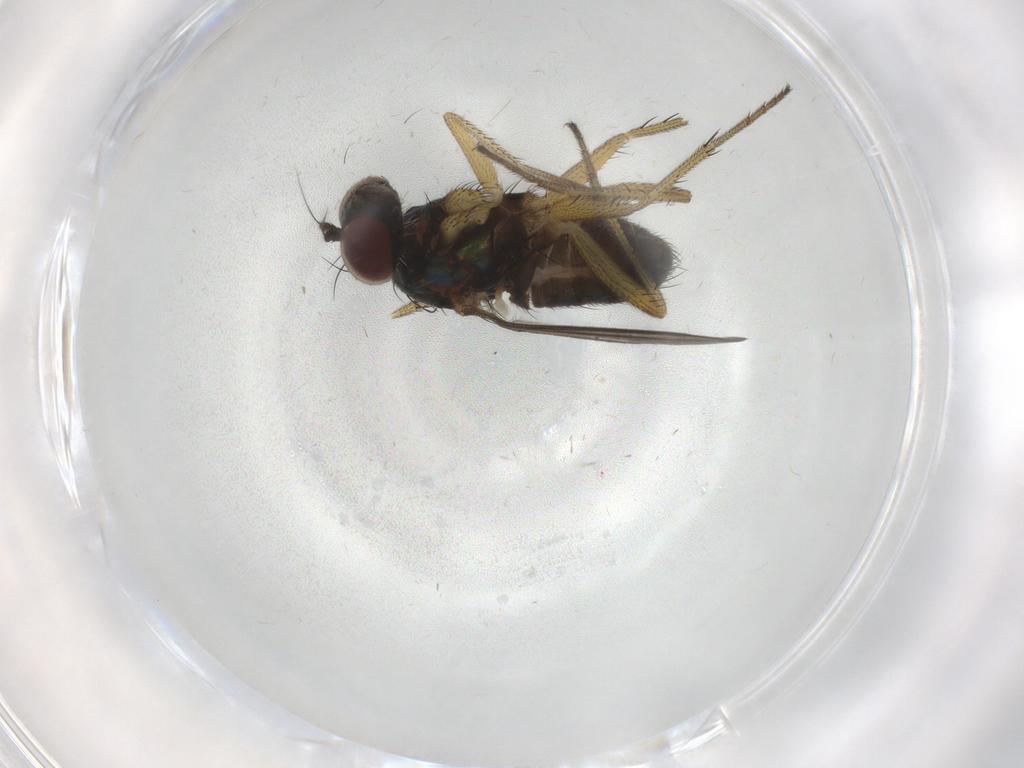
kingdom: Animalia
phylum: Arthropoda
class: Insecta
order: Diptera
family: Dolichopodidae
